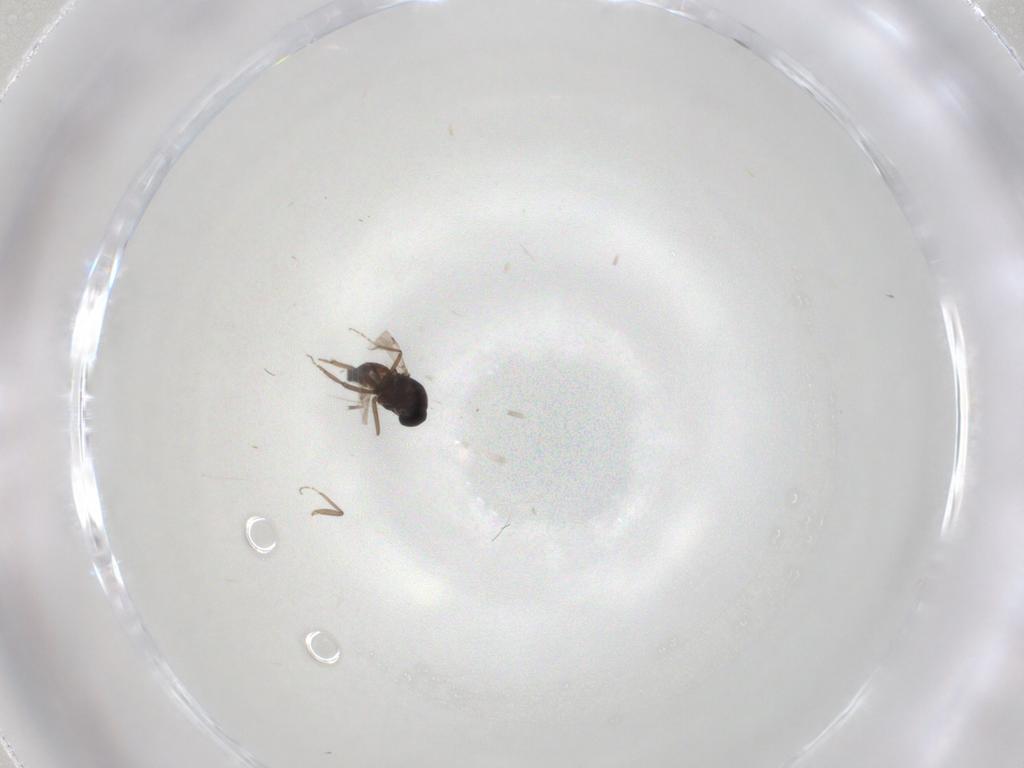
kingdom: Animalia
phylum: Arthropoda
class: Insecta
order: Diptera
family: Ceratopogonidae
